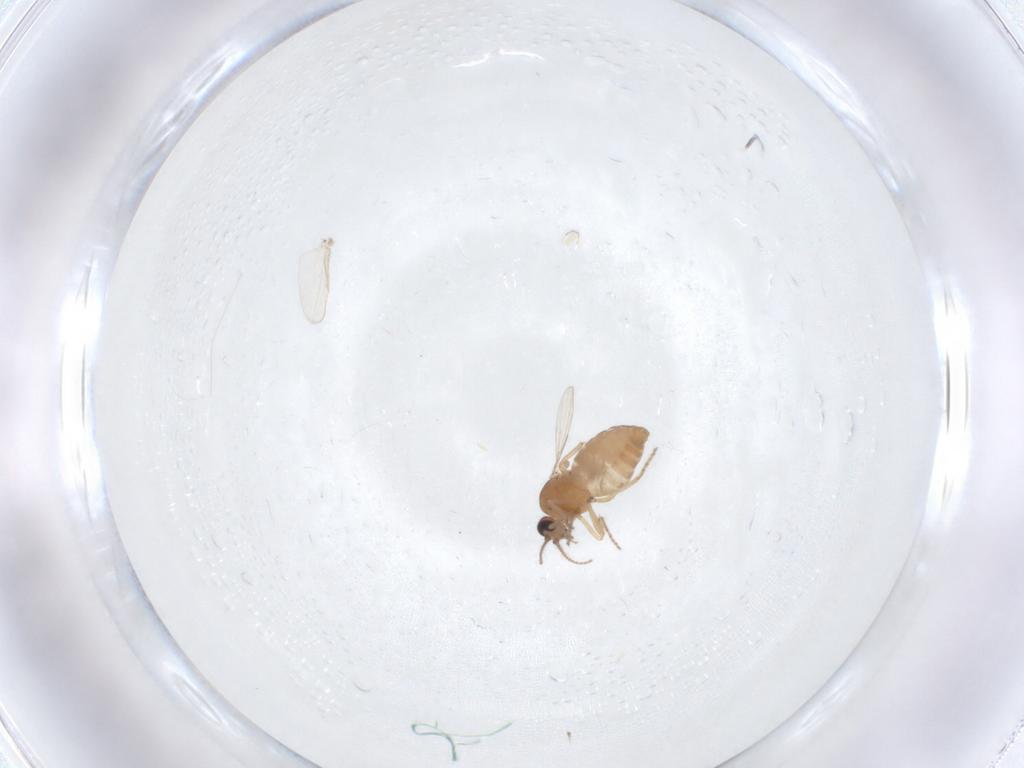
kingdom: Animalia
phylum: Arthropoda
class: Insecta
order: Diptera
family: Ceratopogonidae
